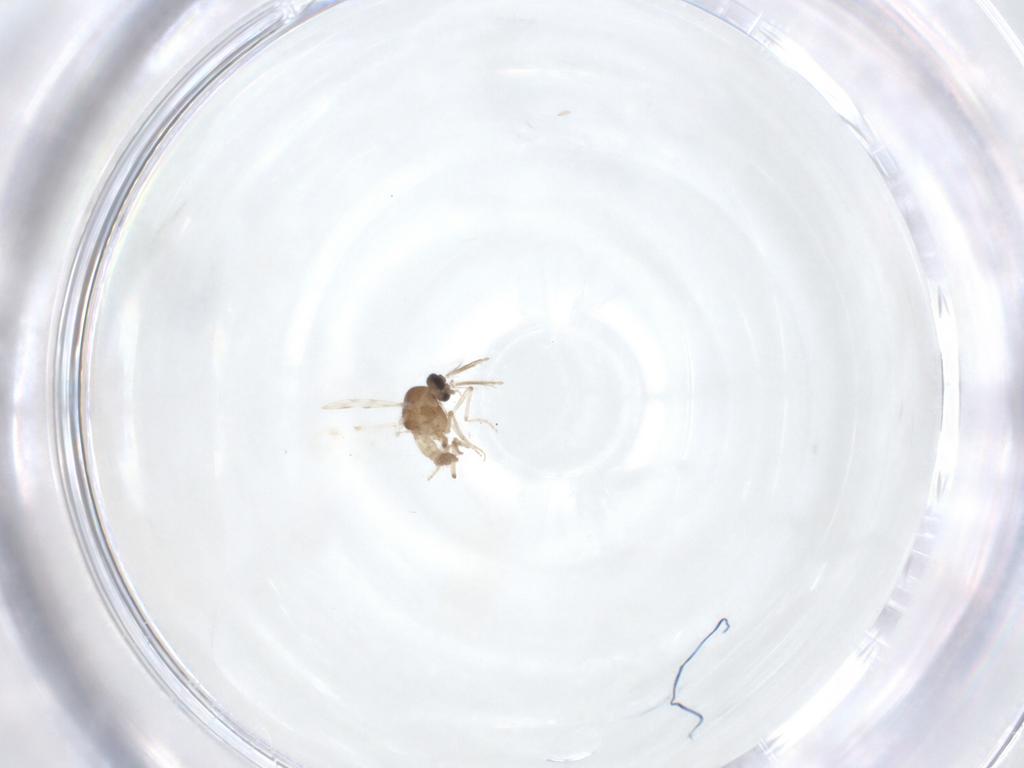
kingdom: Animalia
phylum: Arthropoda
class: Insecta
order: Diptera
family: Ceratopogonidae
